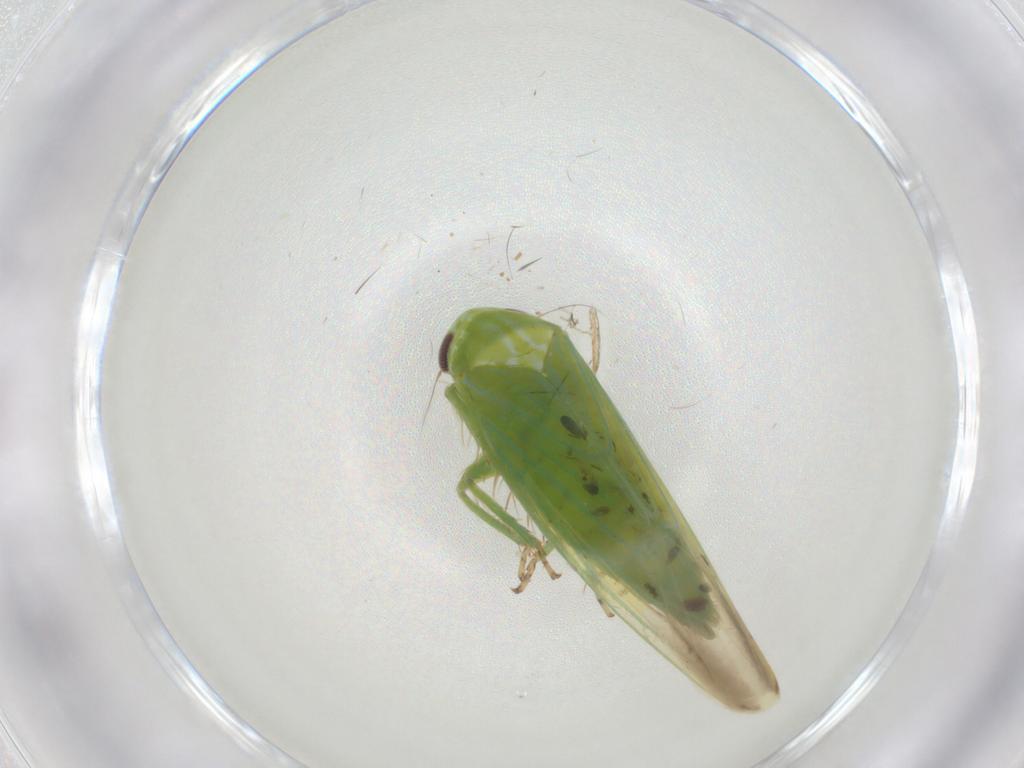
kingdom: Animalia
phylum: Arthropoda
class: Insecta
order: Hemiptera
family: Cicadellidae
